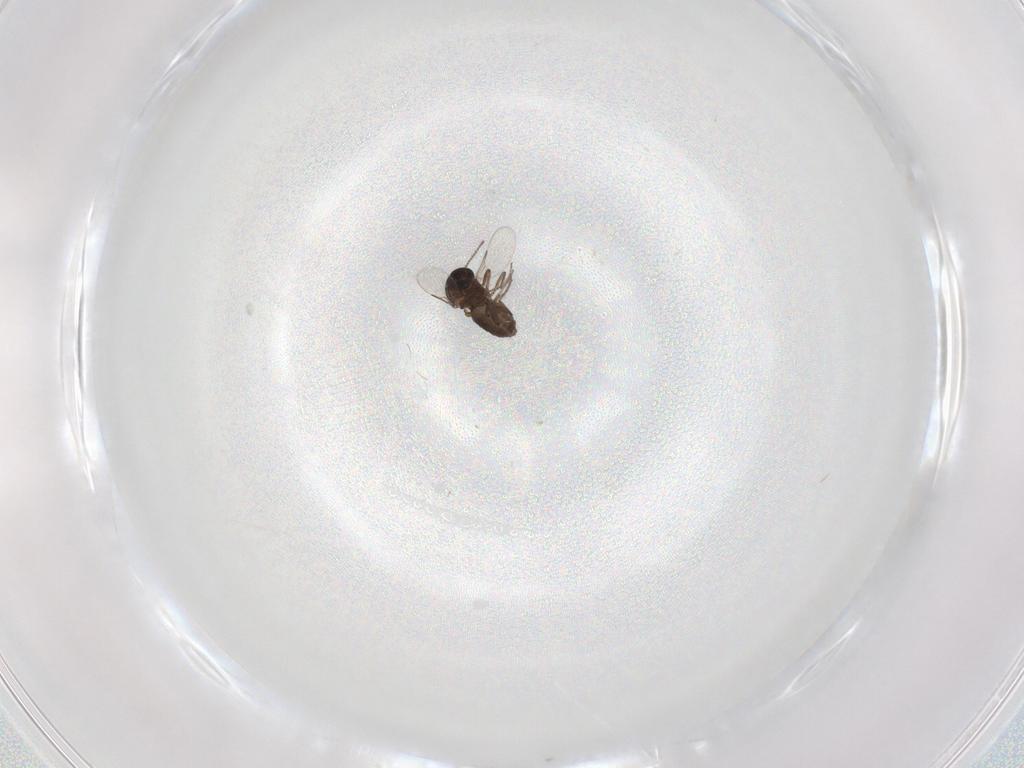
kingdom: Animalia
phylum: Arthropoda
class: Insecta
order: Diptera
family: Ceratopogonidae
